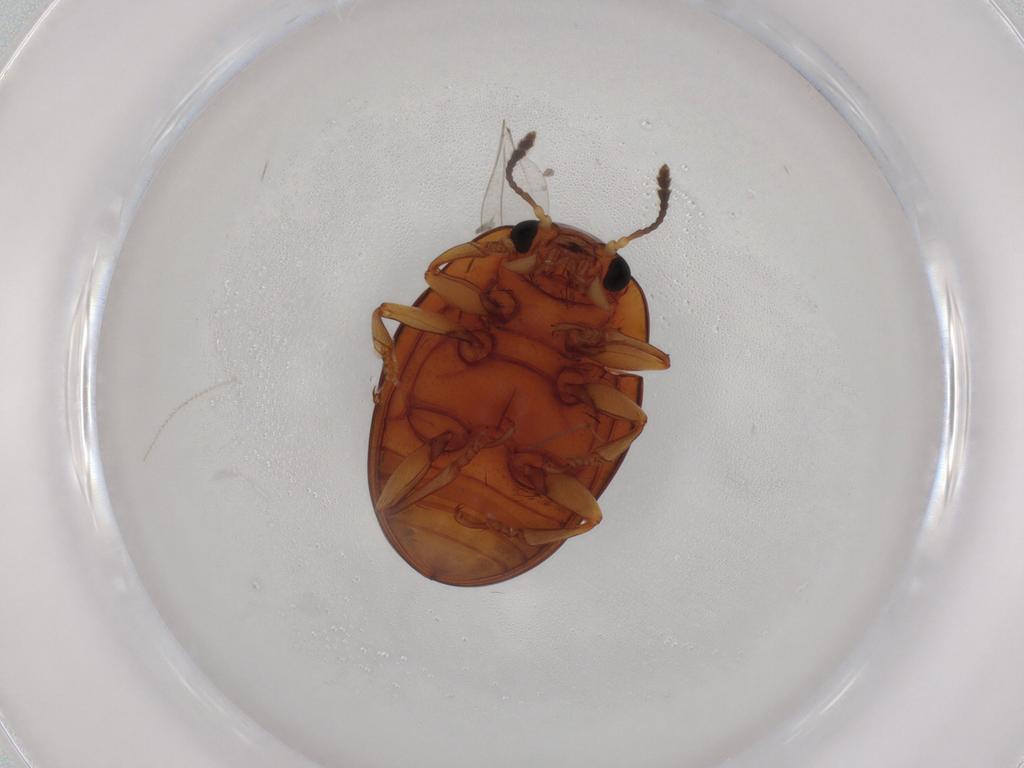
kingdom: Animalia
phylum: Arthropoda
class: Insecta
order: Coleoptera
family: Erotylidae
